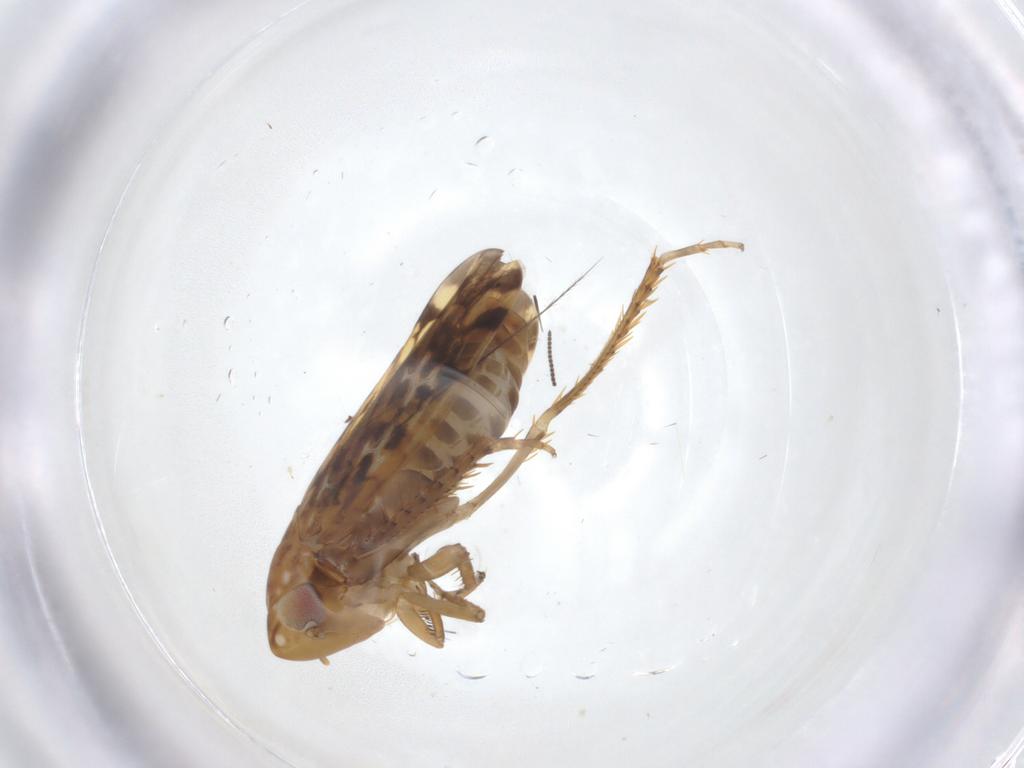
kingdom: Animalia
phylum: Arthropoda
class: Insecta
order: Hemiptera
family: Cicadellidae
